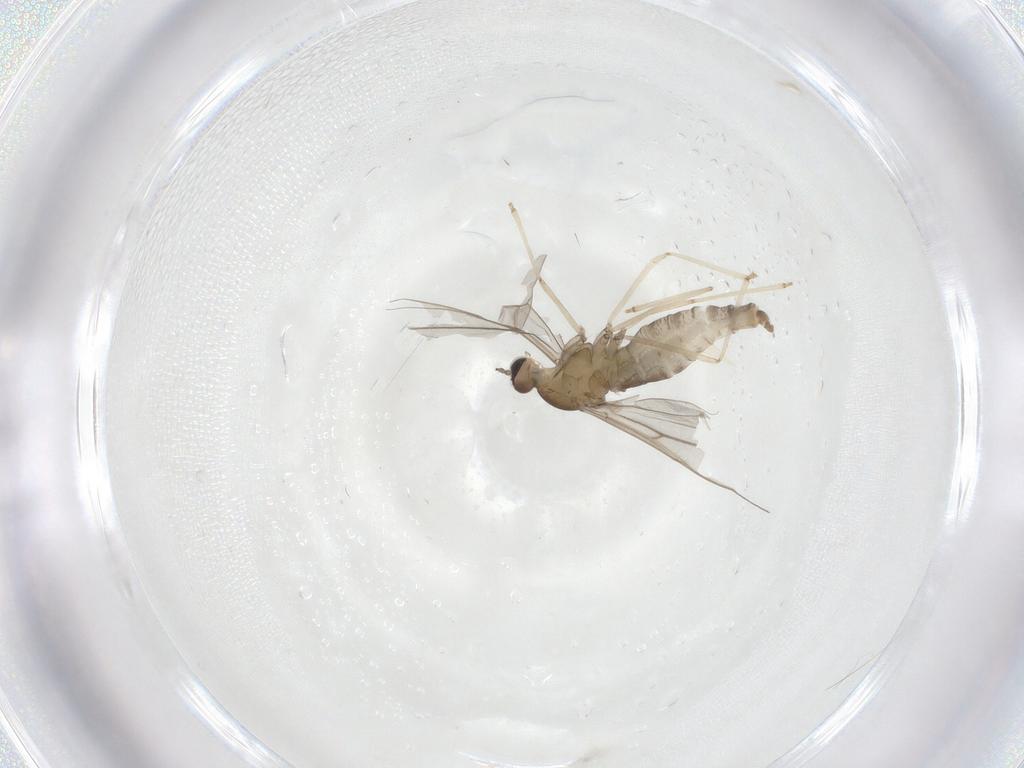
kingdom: Animalia
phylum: Arthropoda
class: Insecta
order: Diptera
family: Cecidomyiidae
